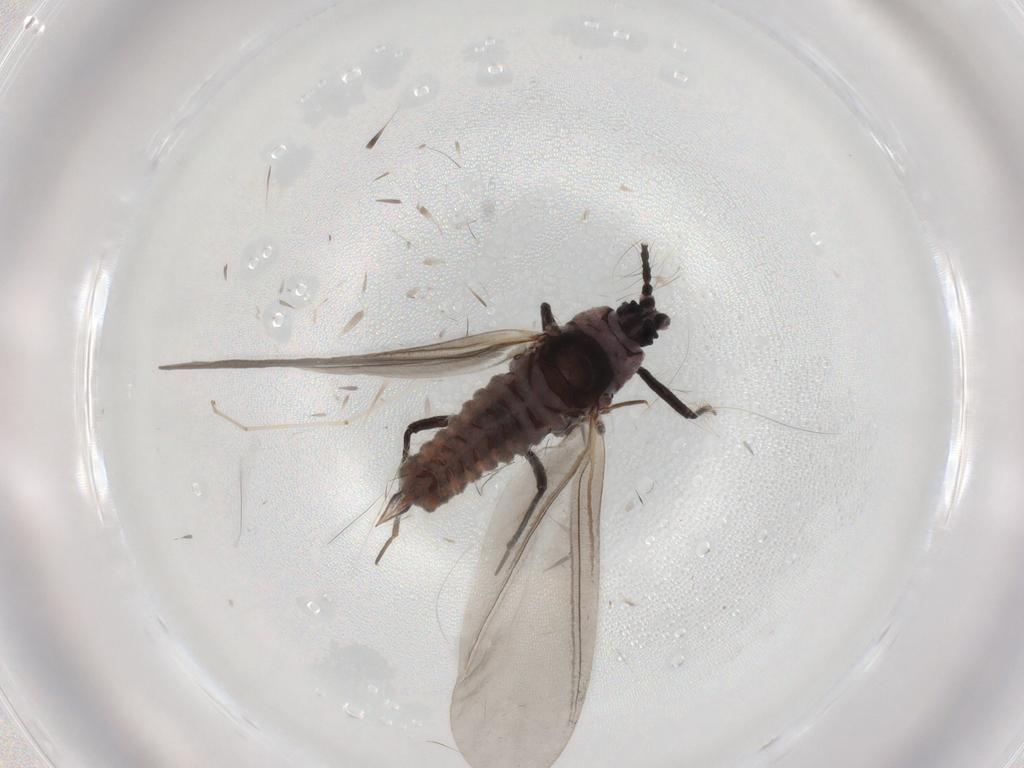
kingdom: Animalia
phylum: Arthropoda
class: Insecta
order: Hemiptera
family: Putoidae
